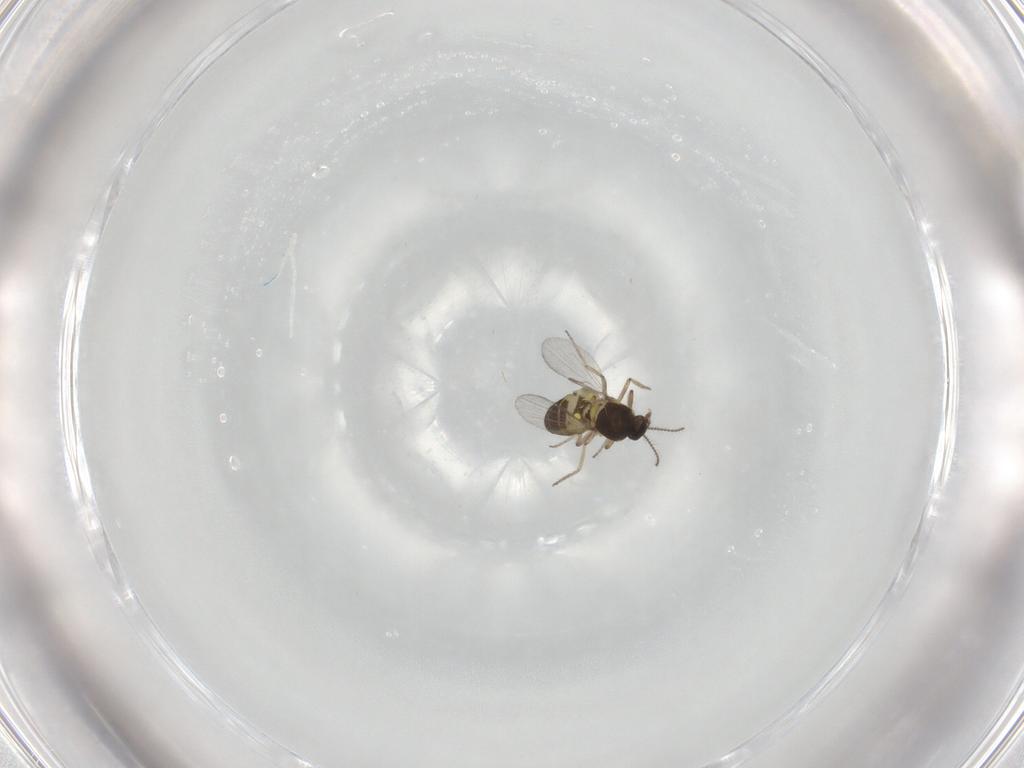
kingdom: Animalia
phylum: Arthropoda
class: Insecta
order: Diptera
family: Ceratopogonidae
